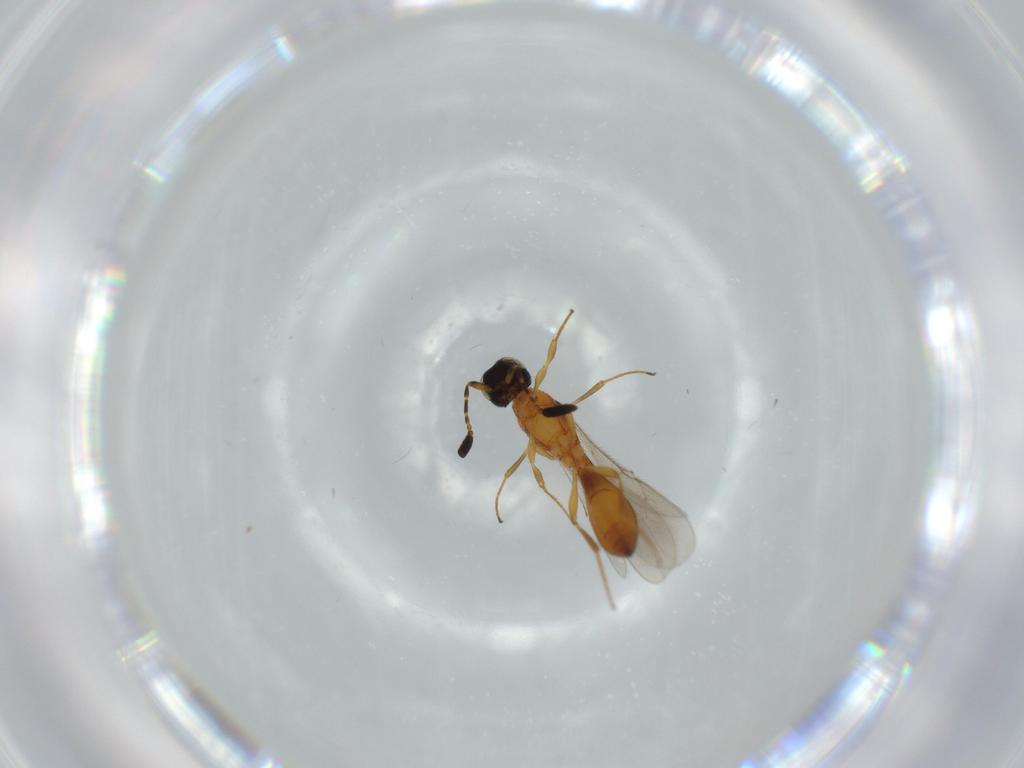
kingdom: Animalia
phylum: Arthropoda
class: Insecta
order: Hymenoptera
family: Scelionidae
